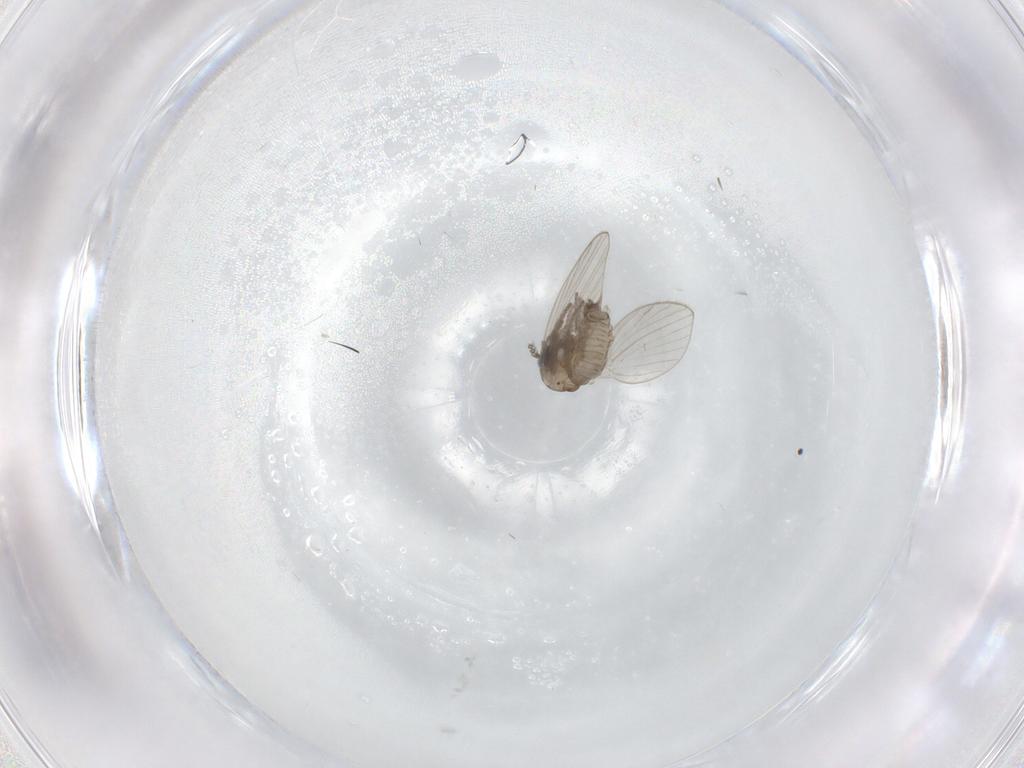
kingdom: Animalia
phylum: Arthropoda
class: Insecta
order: Diptera
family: Psychodidae
